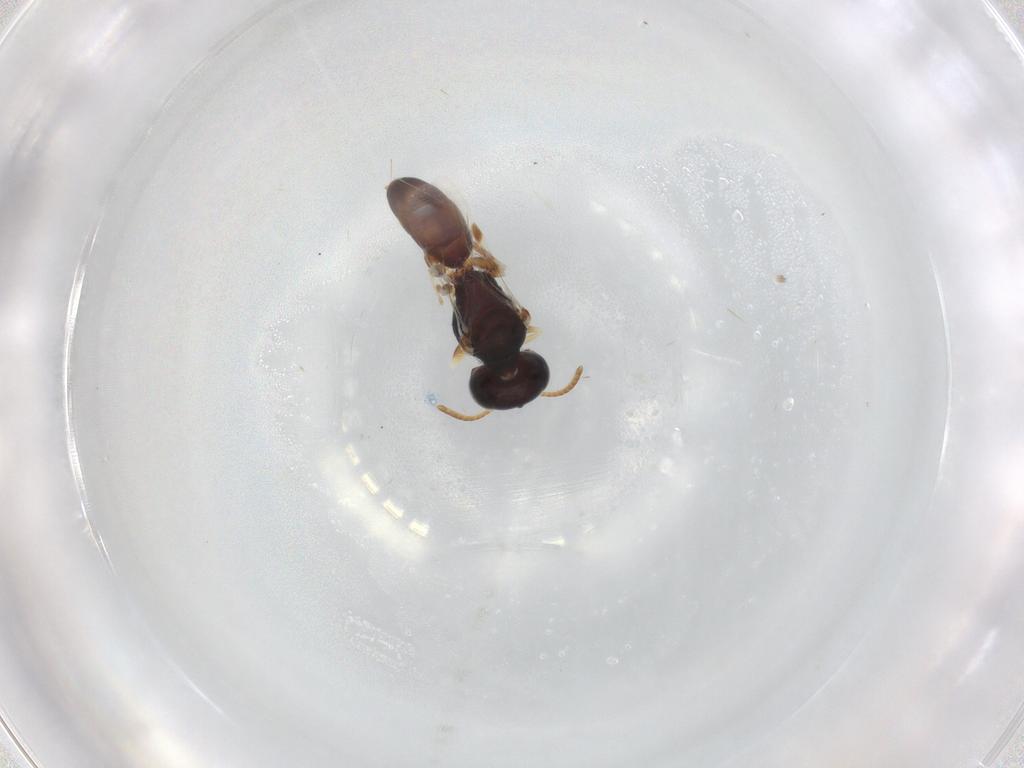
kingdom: Animalia
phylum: Arthropoda
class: Insecta
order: Hymenoptera
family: Pemphredonidae
